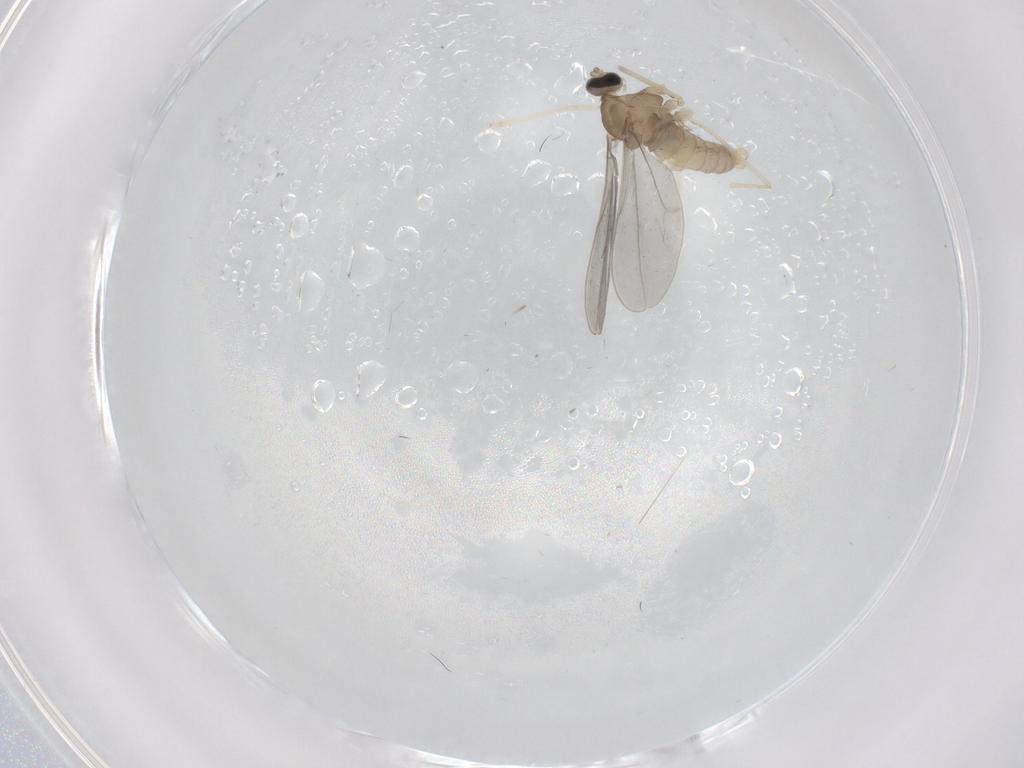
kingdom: Animalia
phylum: Arthropoda
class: Insecta
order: Diptera
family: Cecidomyiidae
